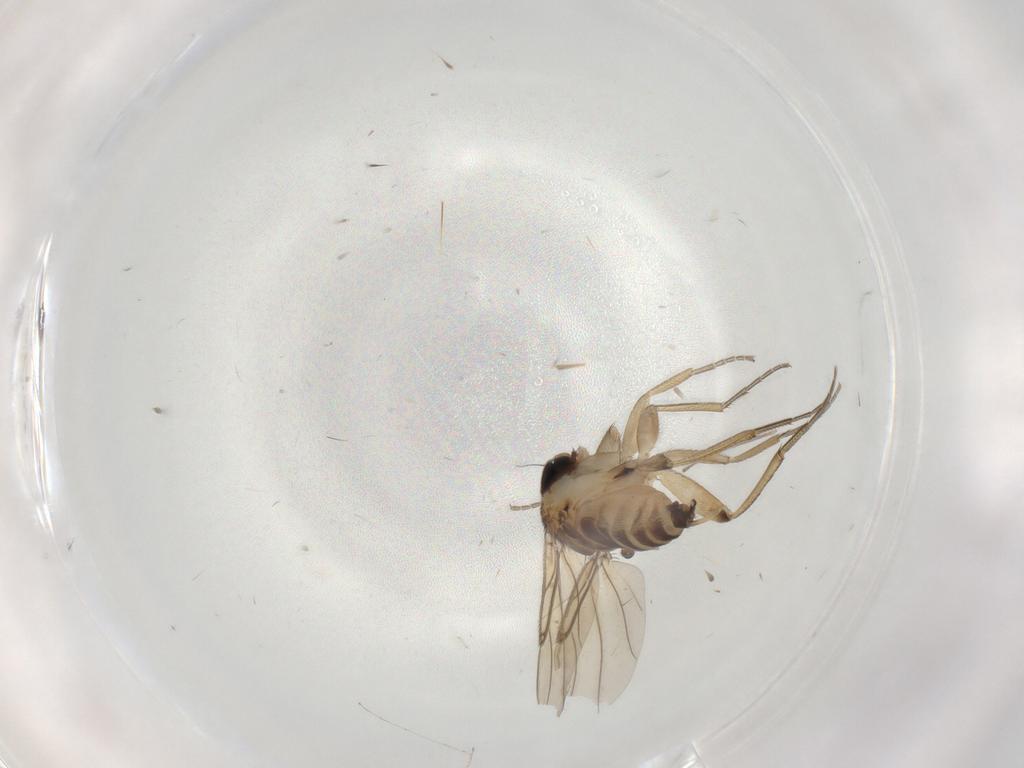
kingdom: Animalia
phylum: Arthropoda
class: Insecta
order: Diptera
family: Cecidomyiidae
